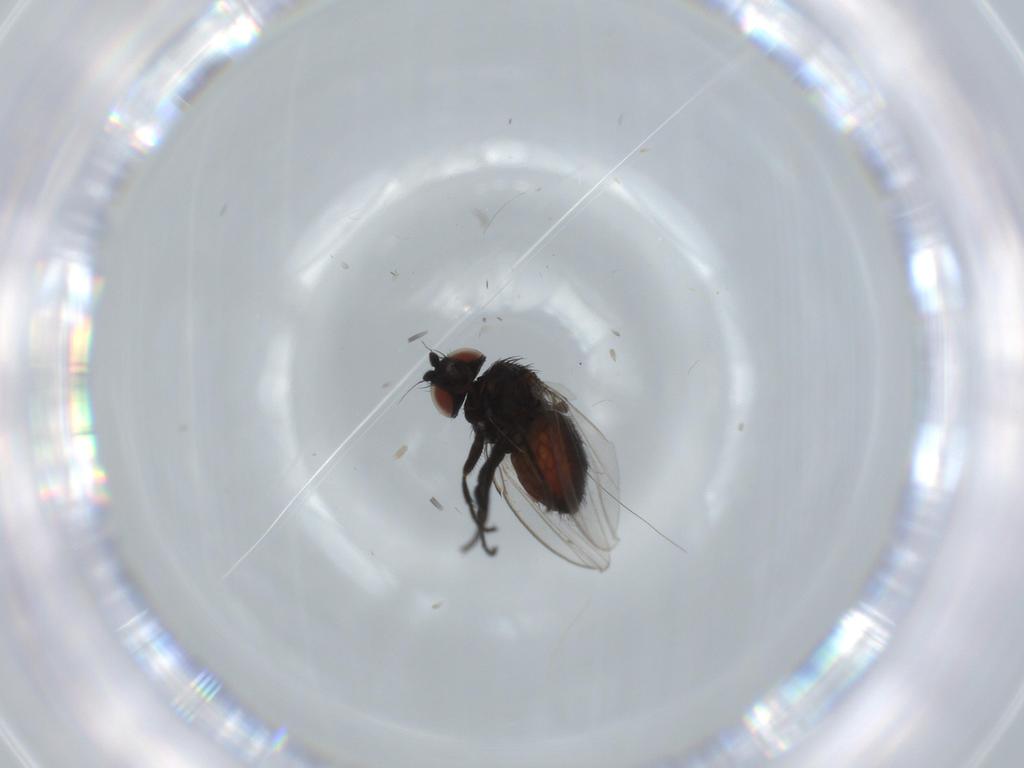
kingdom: Animalia
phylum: Arthropoda
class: Insecta
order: Diptera
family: Milichiidae
